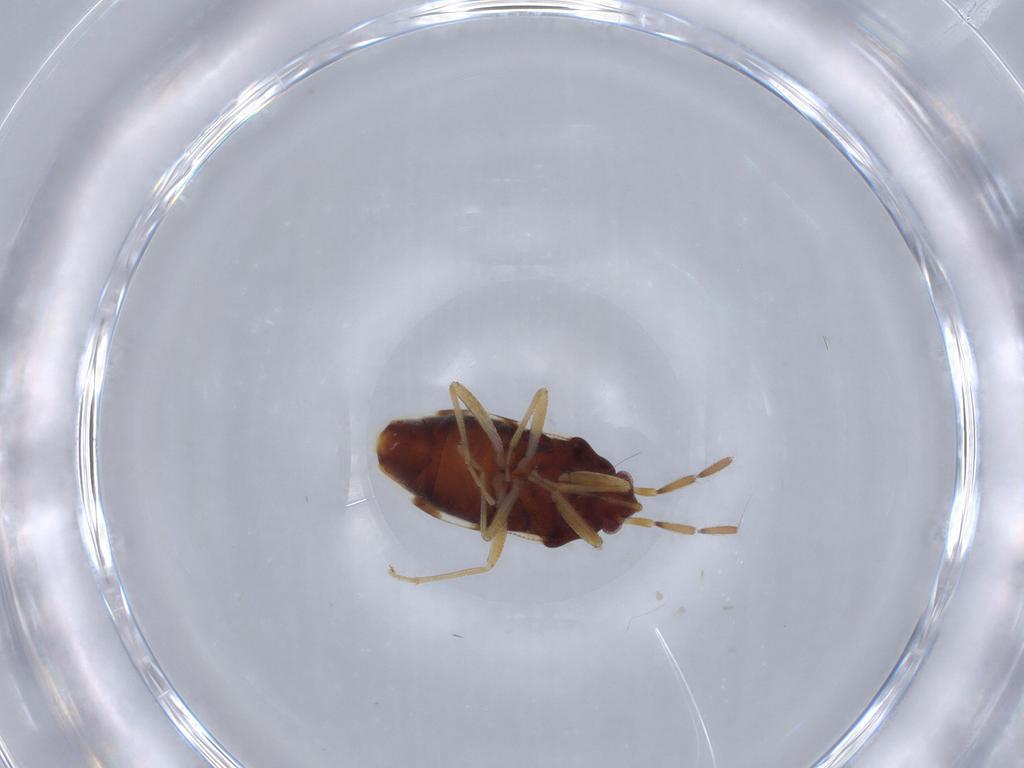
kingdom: Animalia
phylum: Arthropoda
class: Insecta
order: Hemiptera
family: Rhyparochromidae
